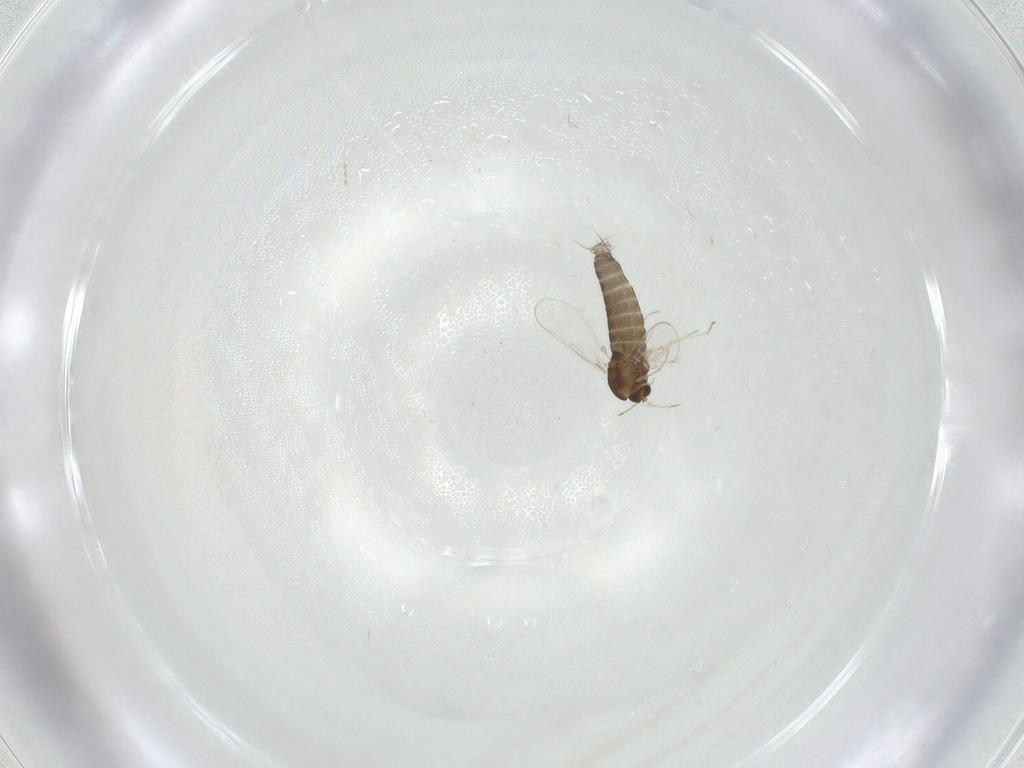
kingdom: Animalia
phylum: Arthropoda
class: Insecta
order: Diptera
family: Chironomidae
